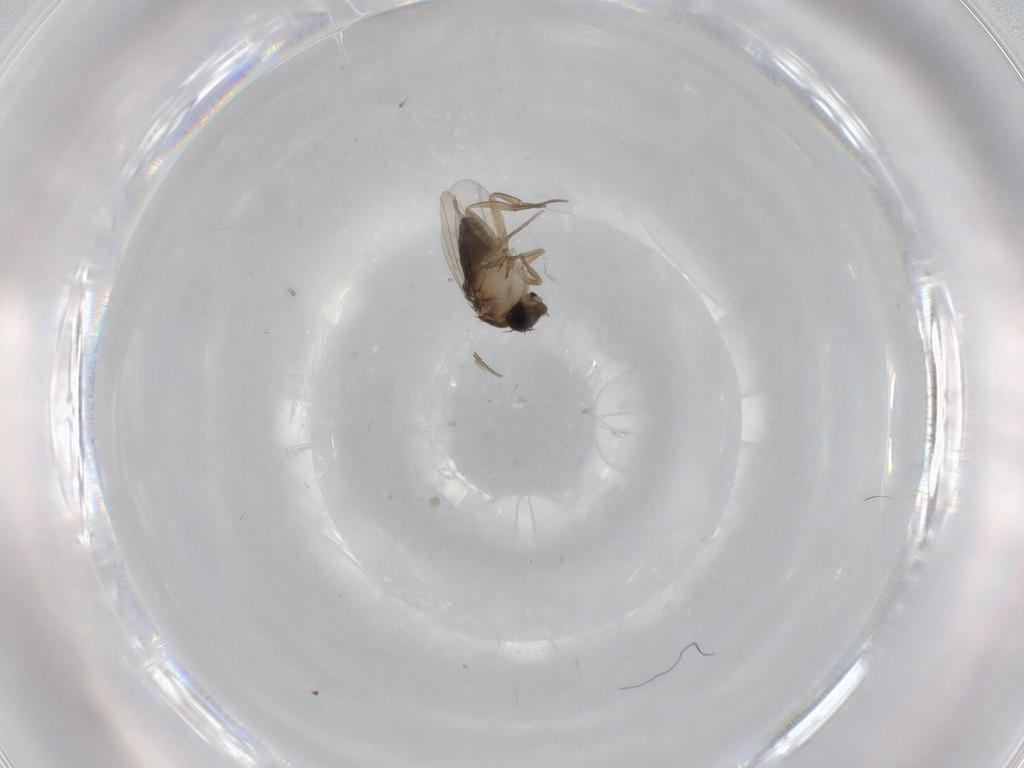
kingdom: Animalia
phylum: Arthropoda
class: Insecta
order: Diptera
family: Phoridae
